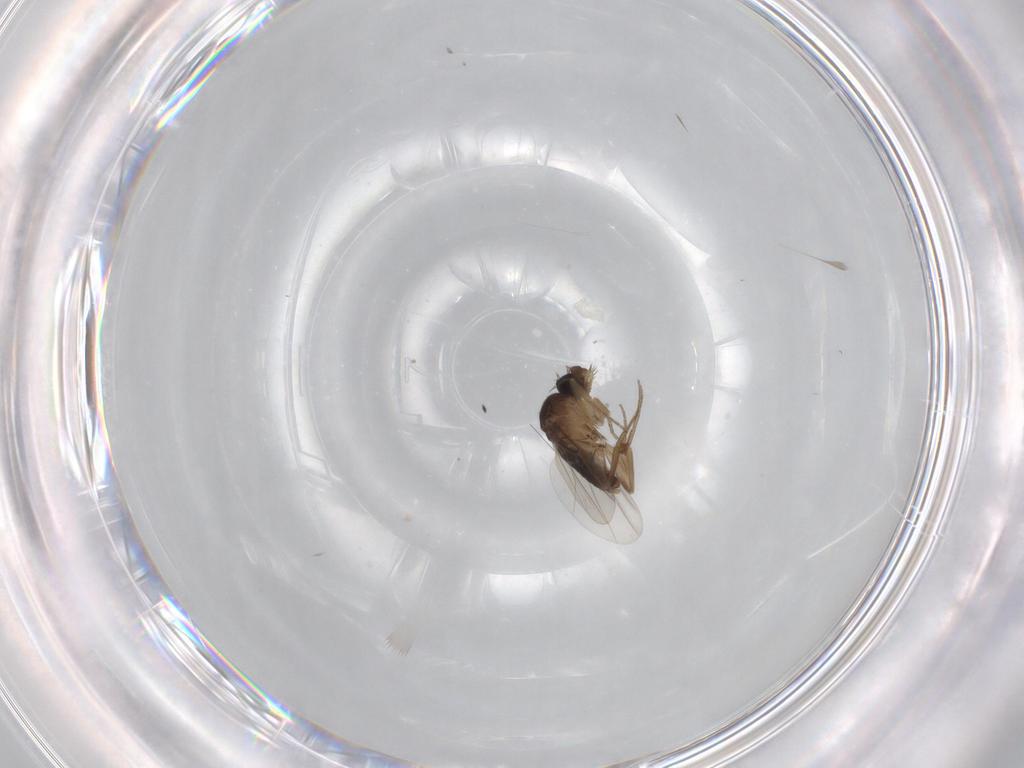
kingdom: Animalia
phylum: Arthropoda
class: Insecta
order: Diptera
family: Phoridae
